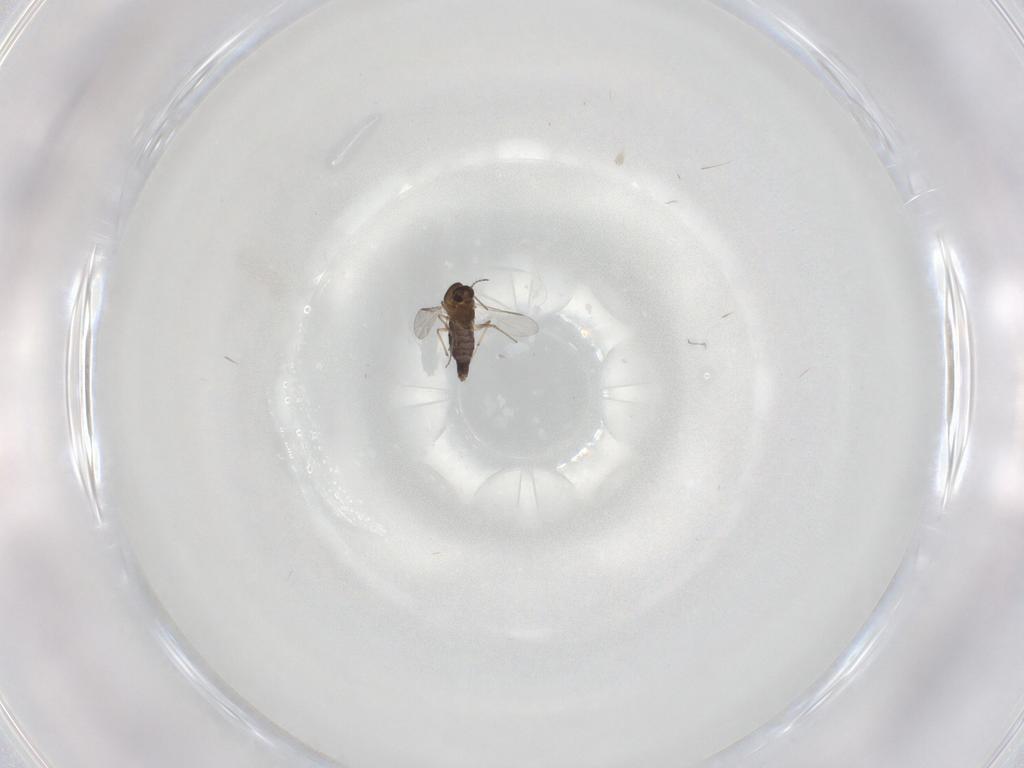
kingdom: Animalia
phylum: Arthropoda
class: Insecta
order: Diptera
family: Chironomidae
